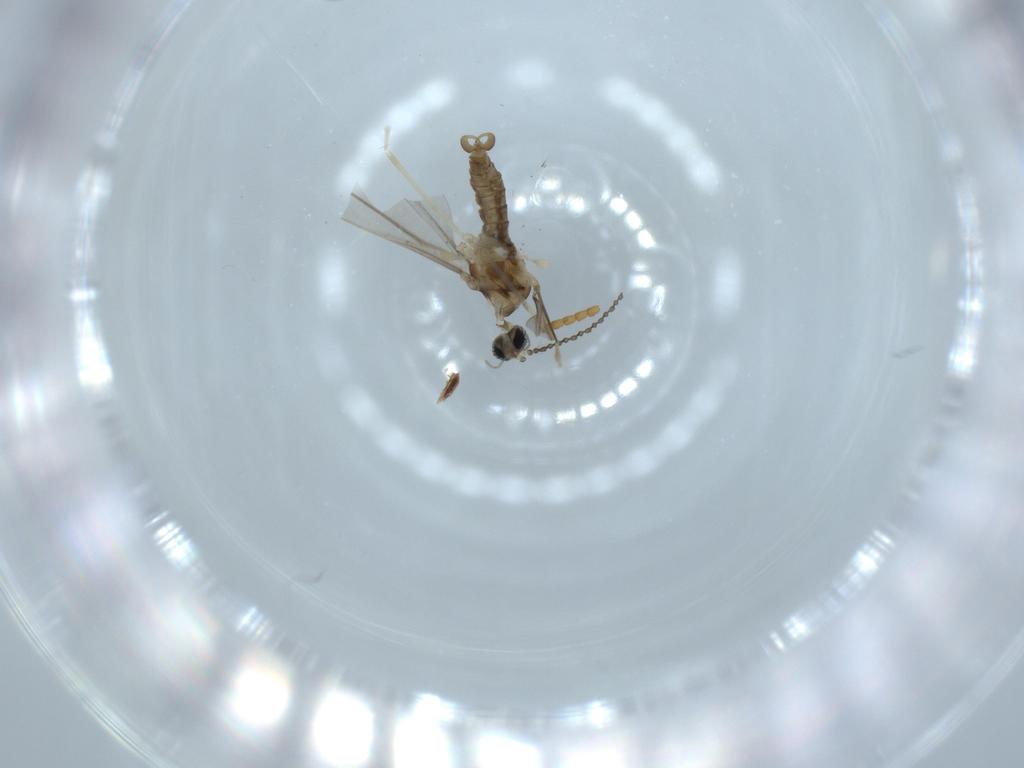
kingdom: Animalia
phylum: Arthropoda
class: Insecta
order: Diptera
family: Cecidomyiidae
